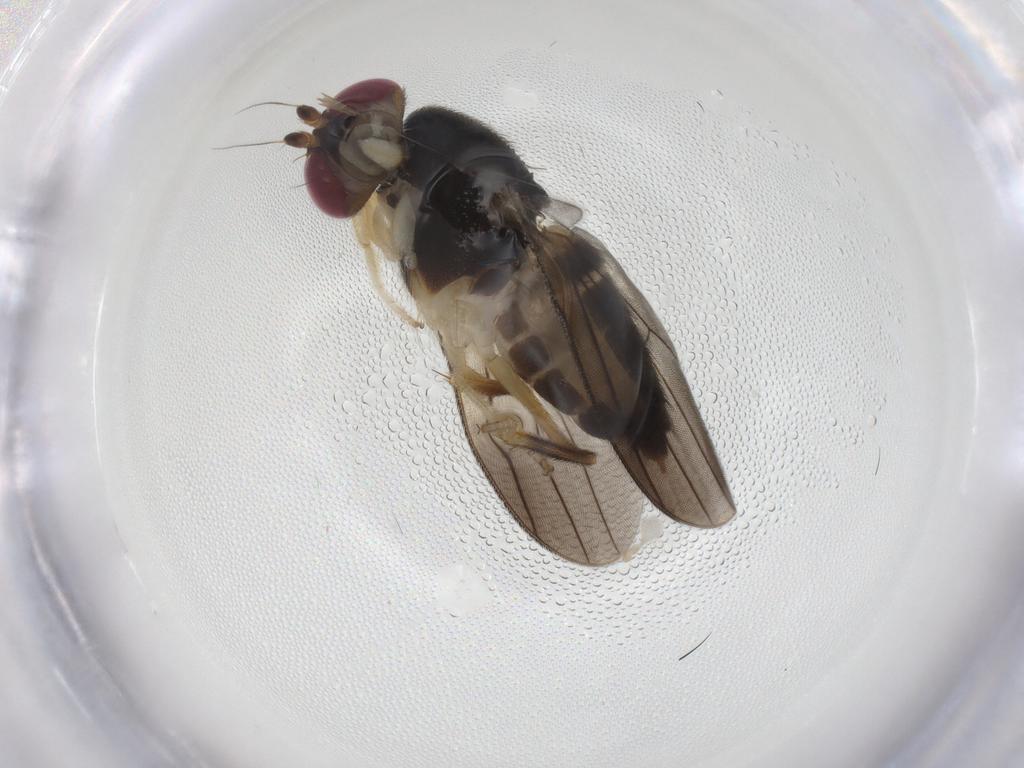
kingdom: Animalia
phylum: Arthropoda
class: Insecta
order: Diptera
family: Clusiidae
